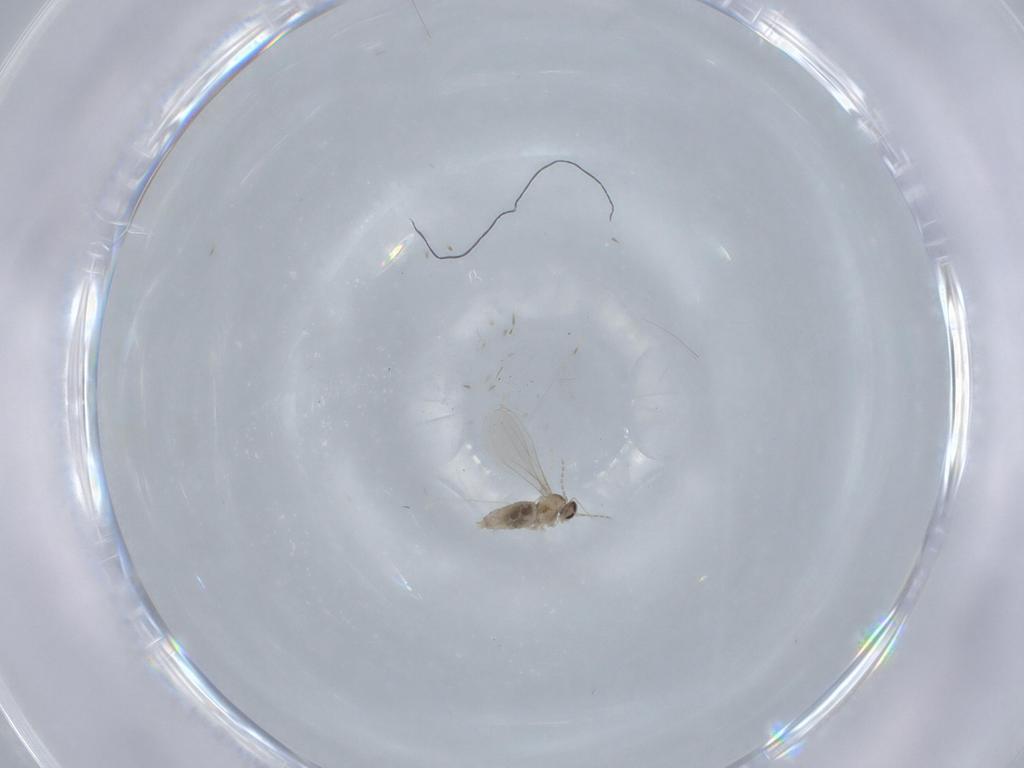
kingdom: Animalia
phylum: Arthropoda
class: Insecta
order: Diptera
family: Cecidomyiidae
